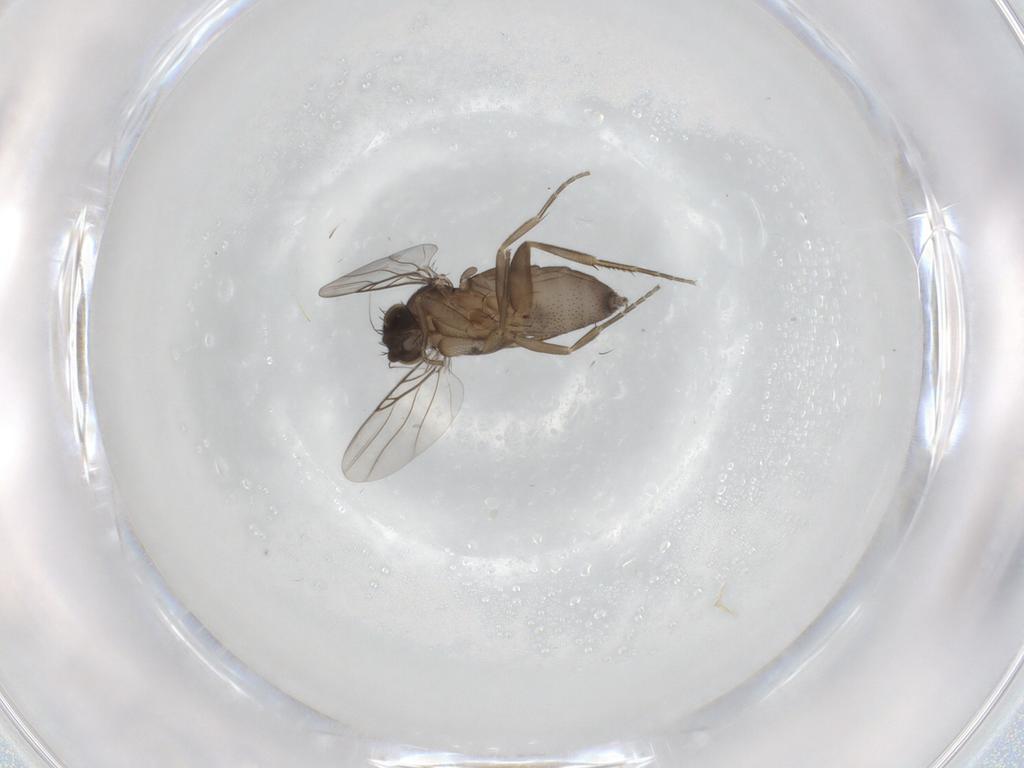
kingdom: Animalia
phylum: Arthropoda
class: Insecta
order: Diptera
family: Phoridae
